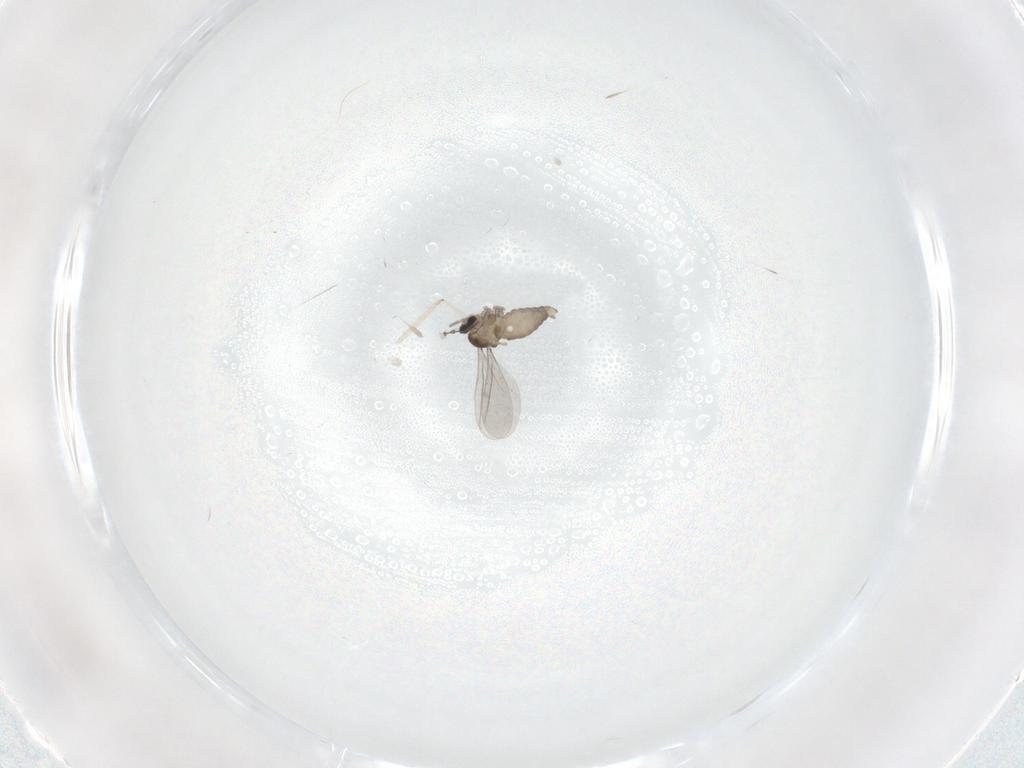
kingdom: Animalia
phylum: Arthropoda
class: Insecta
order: Diptera
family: Cecidomyiidae
